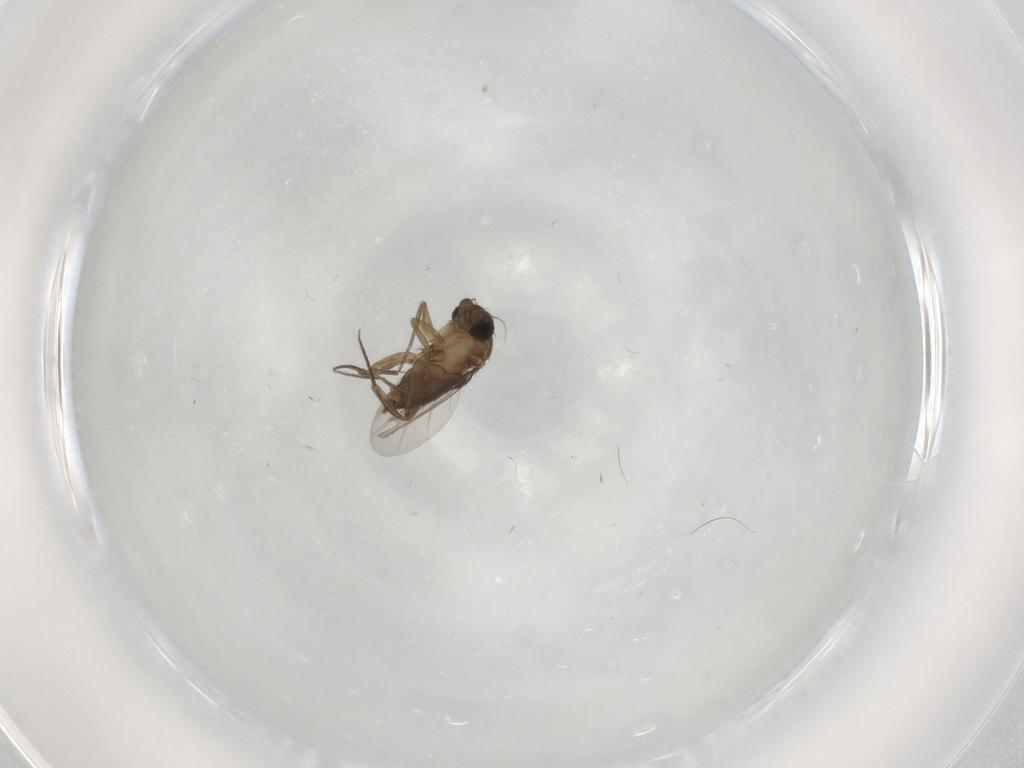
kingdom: Animalia
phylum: Arthropoda
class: Insecta
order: Diptera
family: Phoridae
